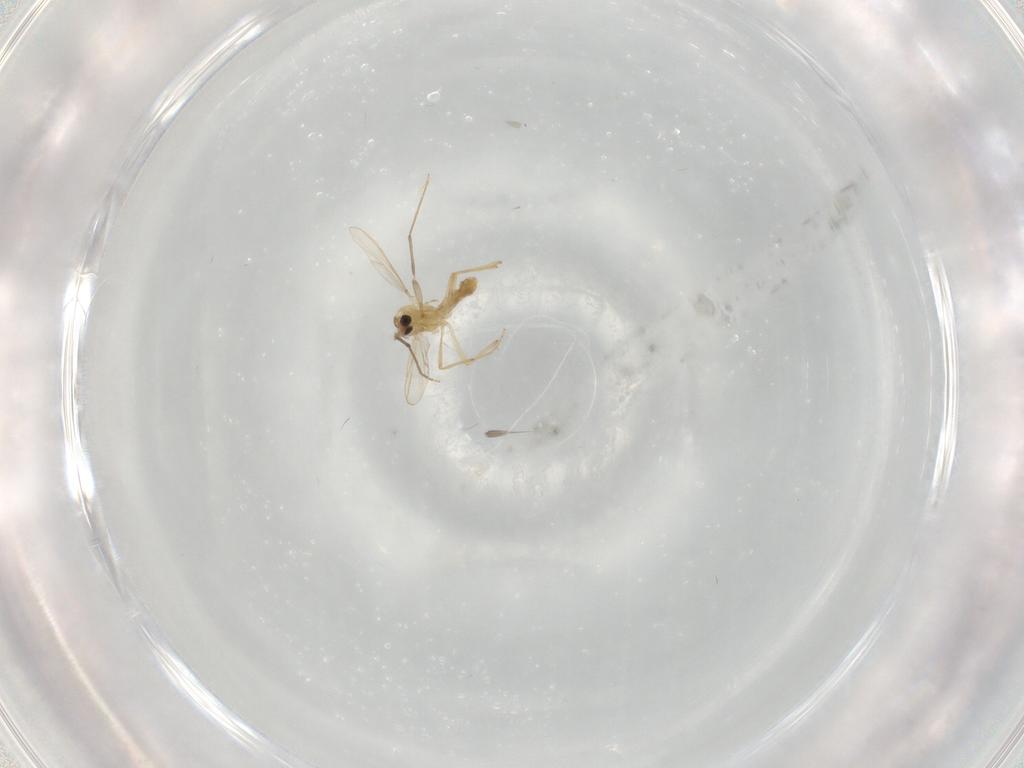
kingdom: Animalia
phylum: Arthropoda
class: Insecta
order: Diptera
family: Chironomidae
